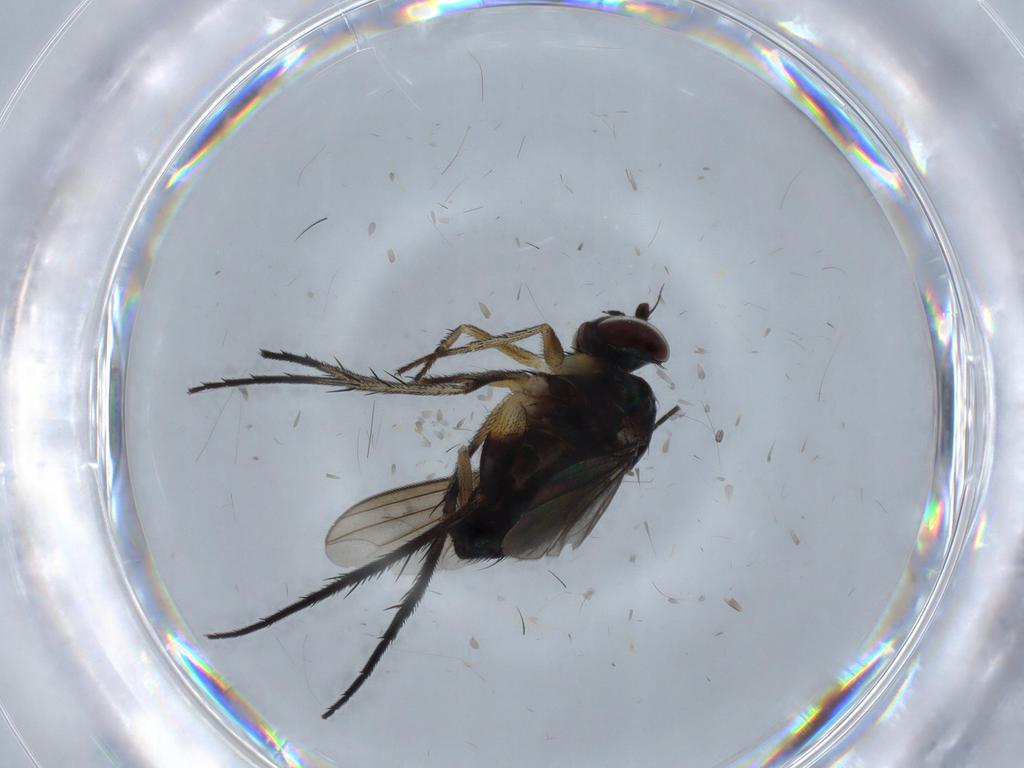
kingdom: Animalia
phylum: Arthropoda
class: Insecta
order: Diptera
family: Dolichopodidae
